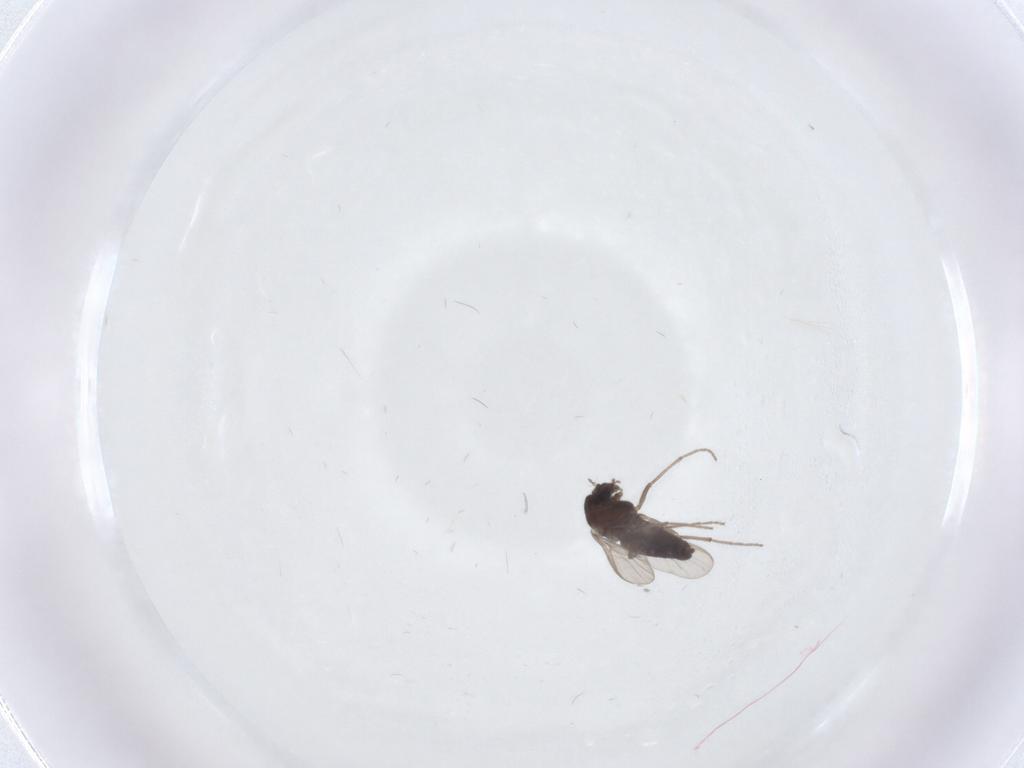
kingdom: Animalia
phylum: Arthropoda
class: Insecta
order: Diptera
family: Chironomidae
